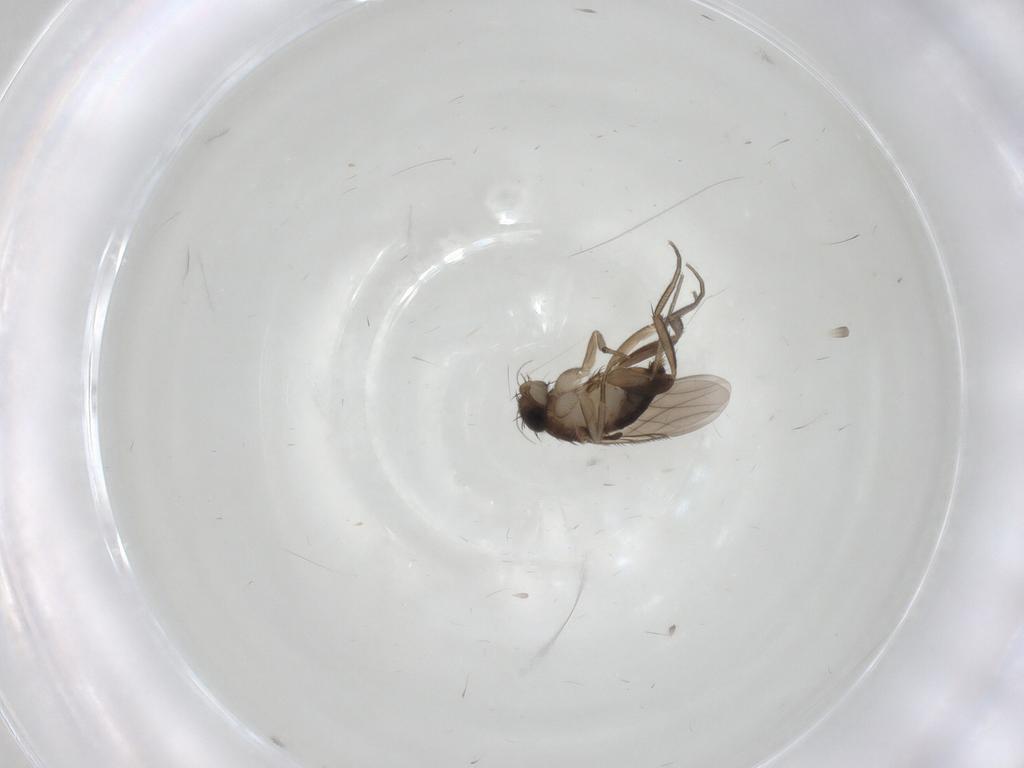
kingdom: Animalia
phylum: Arthropoda
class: Insecta
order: Diptera
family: Phoridae
